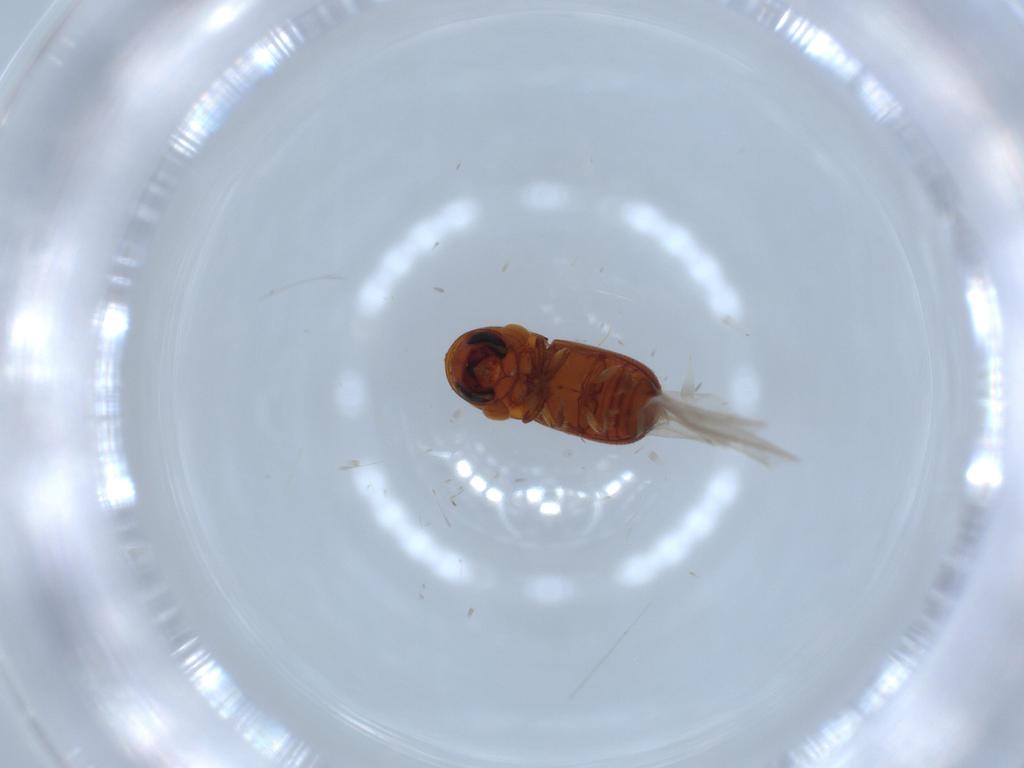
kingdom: Animalia
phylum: Arthropoda
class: Insecta
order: Coleoptera
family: Curculionidae
